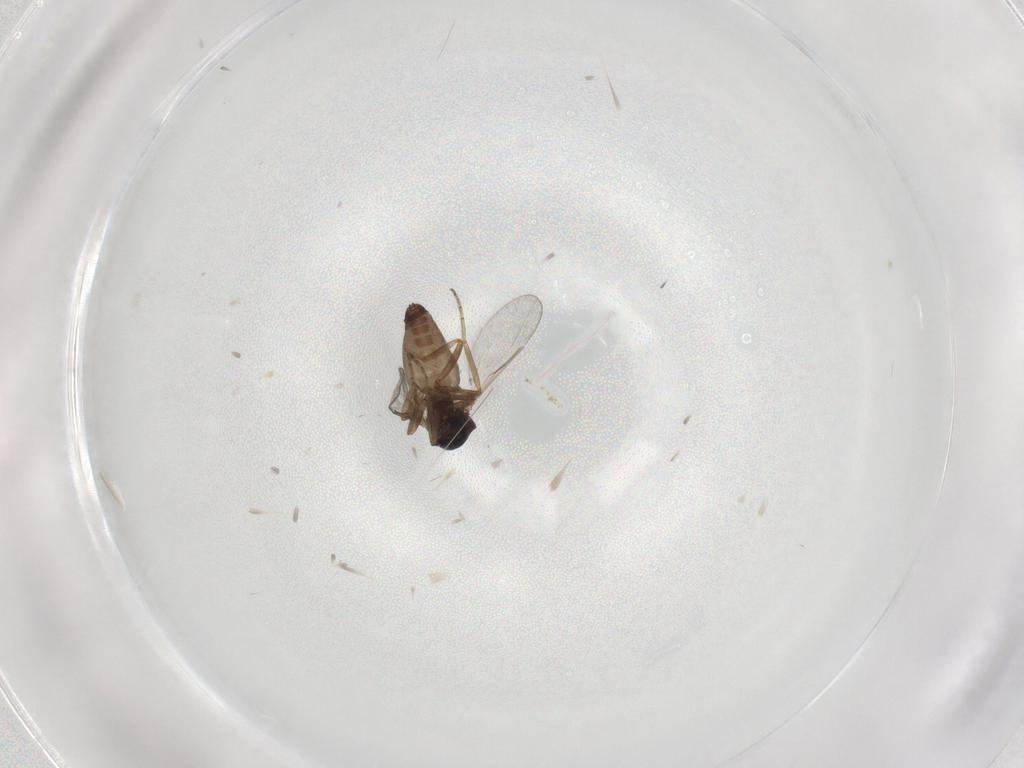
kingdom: Animalia
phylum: Arthropoda
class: Insecta
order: Diptera
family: Ceratopogonidae
